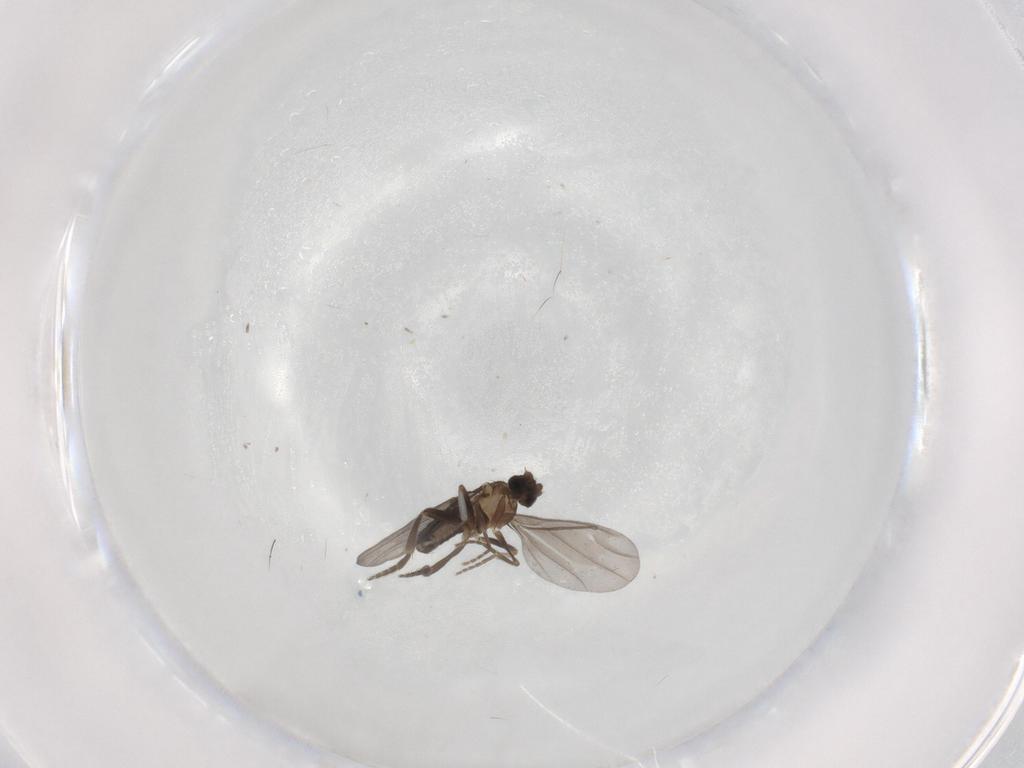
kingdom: Animalia
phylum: Arthropoda
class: Insecta
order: Diptera
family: Phoridae
